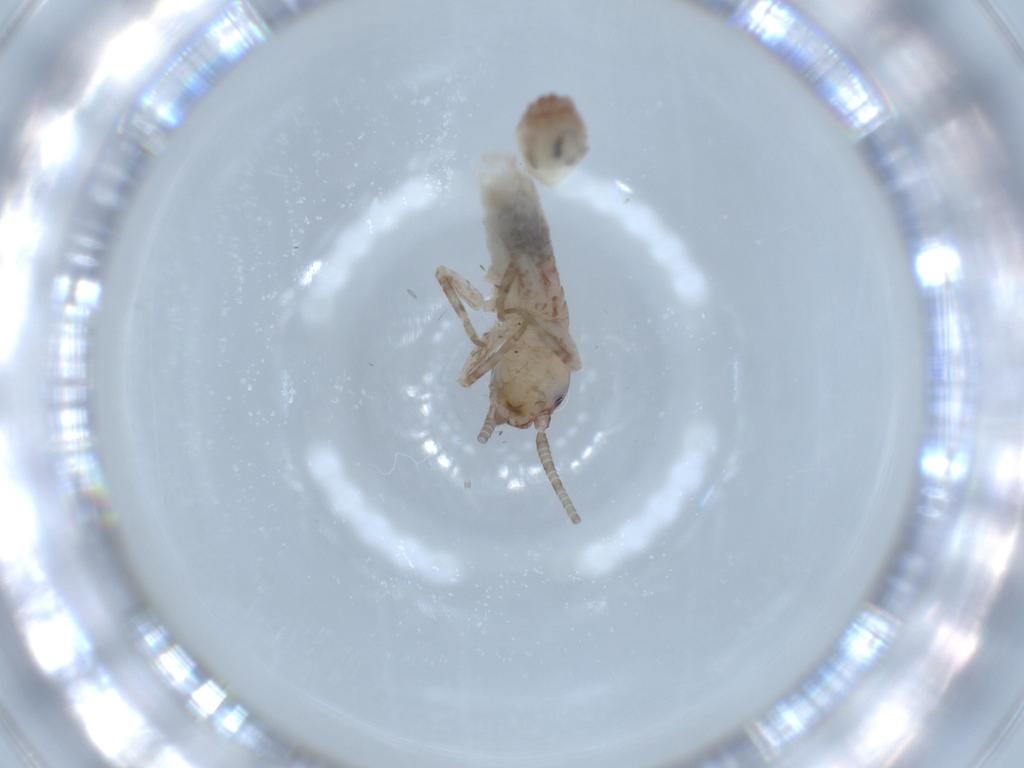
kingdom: Animalia
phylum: Arthropoda
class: Insecta
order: Orthoptera
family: Mogoplistidae
